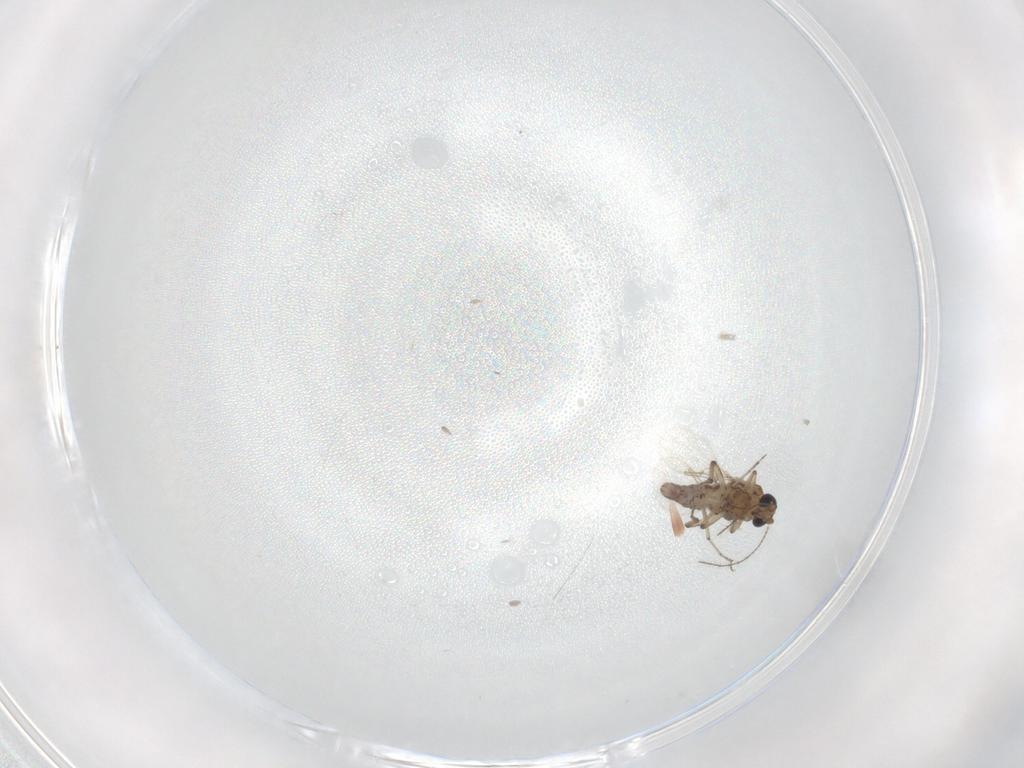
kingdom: Animalia
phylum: Arthropoda
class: Insecta
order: Diptera
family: Ceratopogonidae
